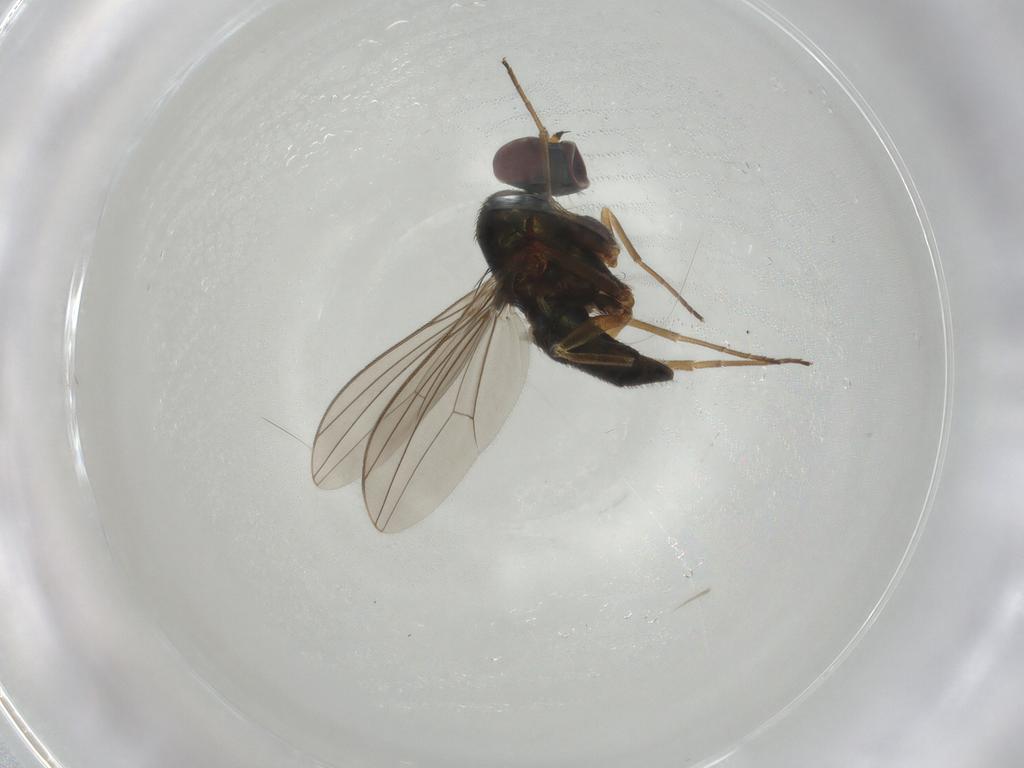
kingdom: Animalia
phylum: Arthropoda
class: Insecta
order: Diptera
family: Dolichopodidae
